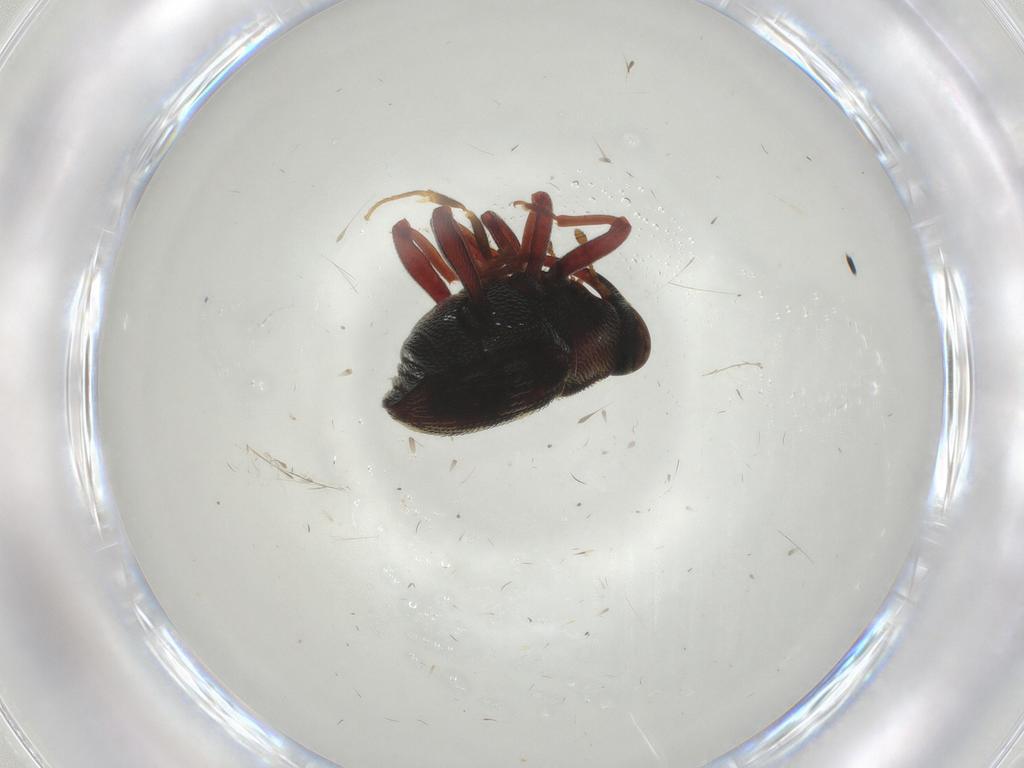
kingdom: Animalia
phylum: Arthropoda
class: Insecta
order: Coleoptera
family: Curculionidae
